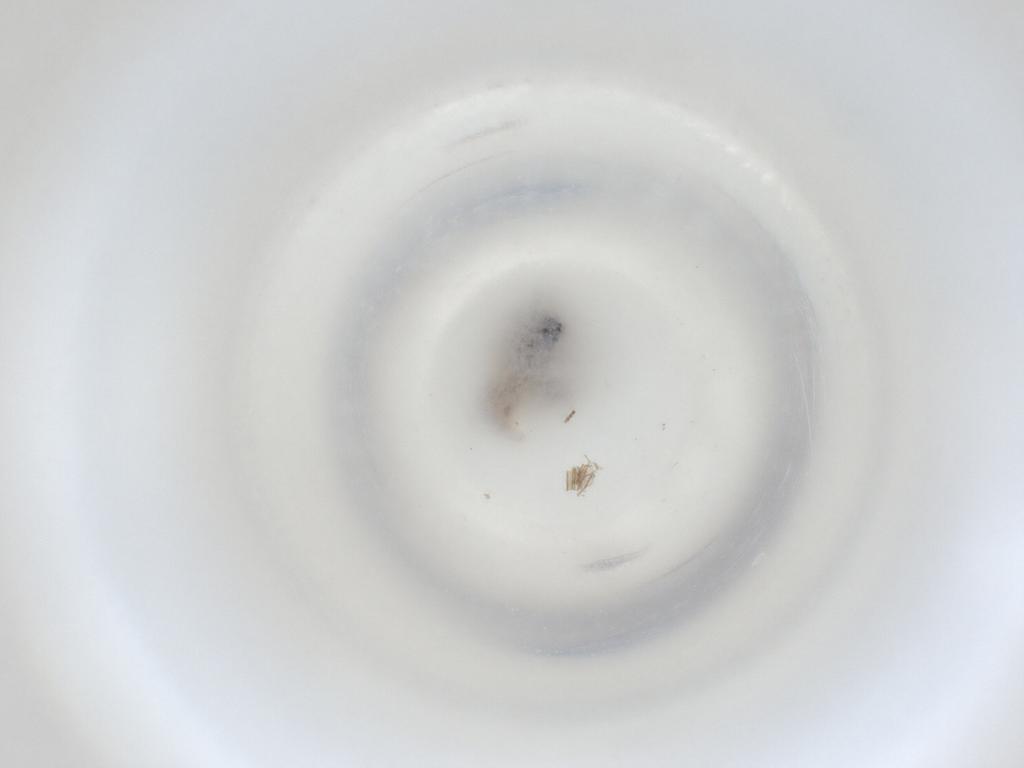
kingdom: Animalia
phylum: Arthropoda
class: Insecta
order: Diptera
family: Cecidomyiidae
